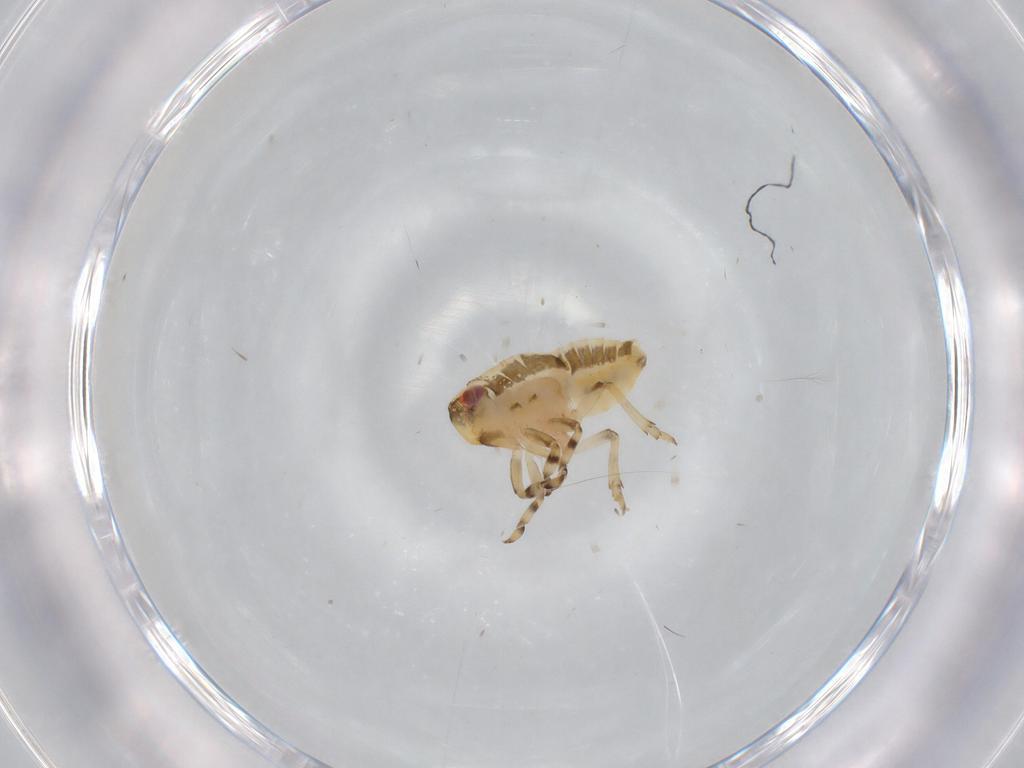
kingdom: Animalia
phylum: Arthropoda
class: Insecta
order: Hemiptera
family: Issidae
